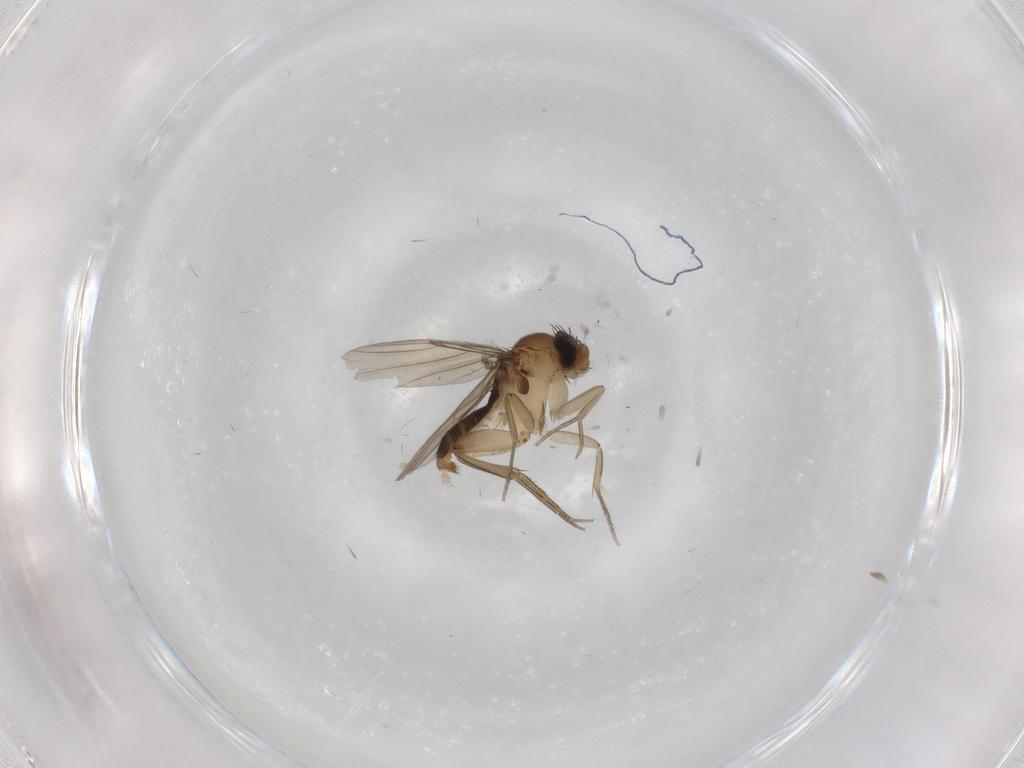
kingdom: Animalia
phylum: Arthropoda
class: Insecta
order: Diptera
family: Phoridae
